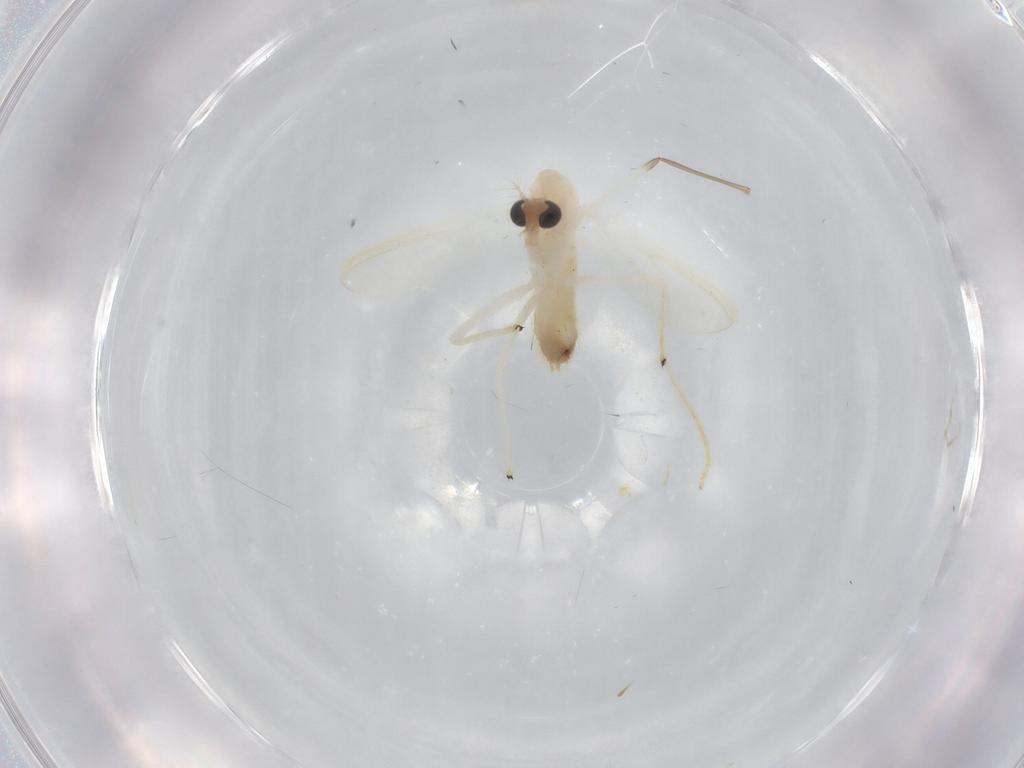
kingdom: Animalia
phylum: Arthropoda
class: Insecta
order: Diptera
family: Chironomidae
